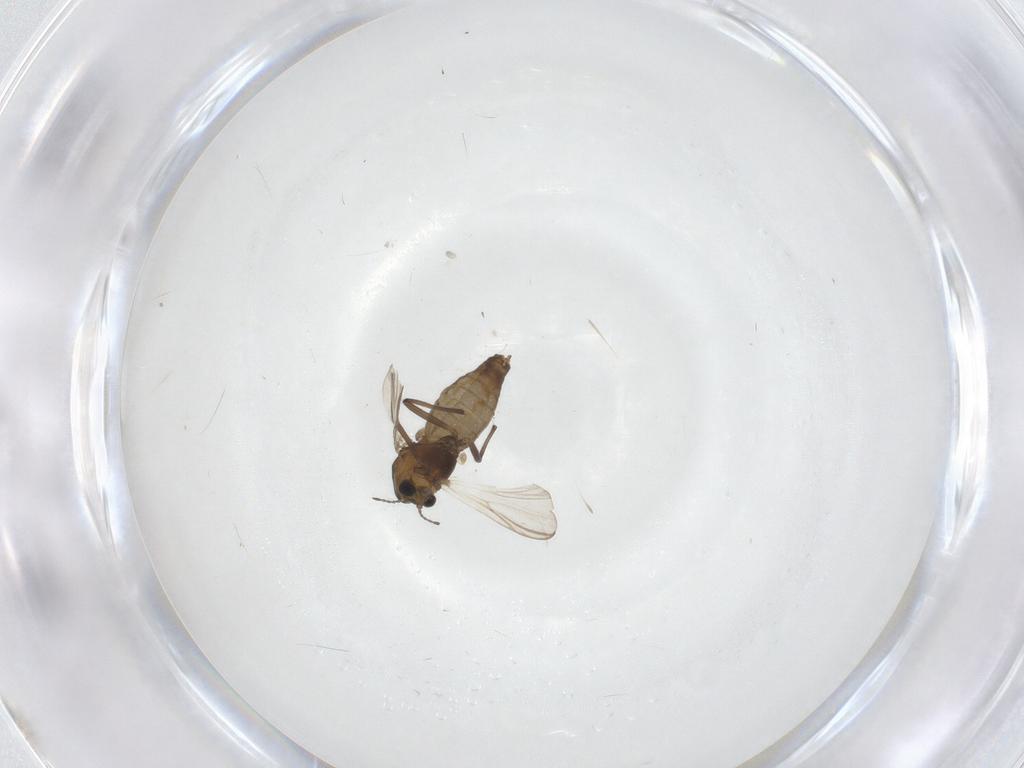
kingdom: Animalia
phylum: Arthropoda
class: Insecta
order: Diptera
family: Chironomidae
